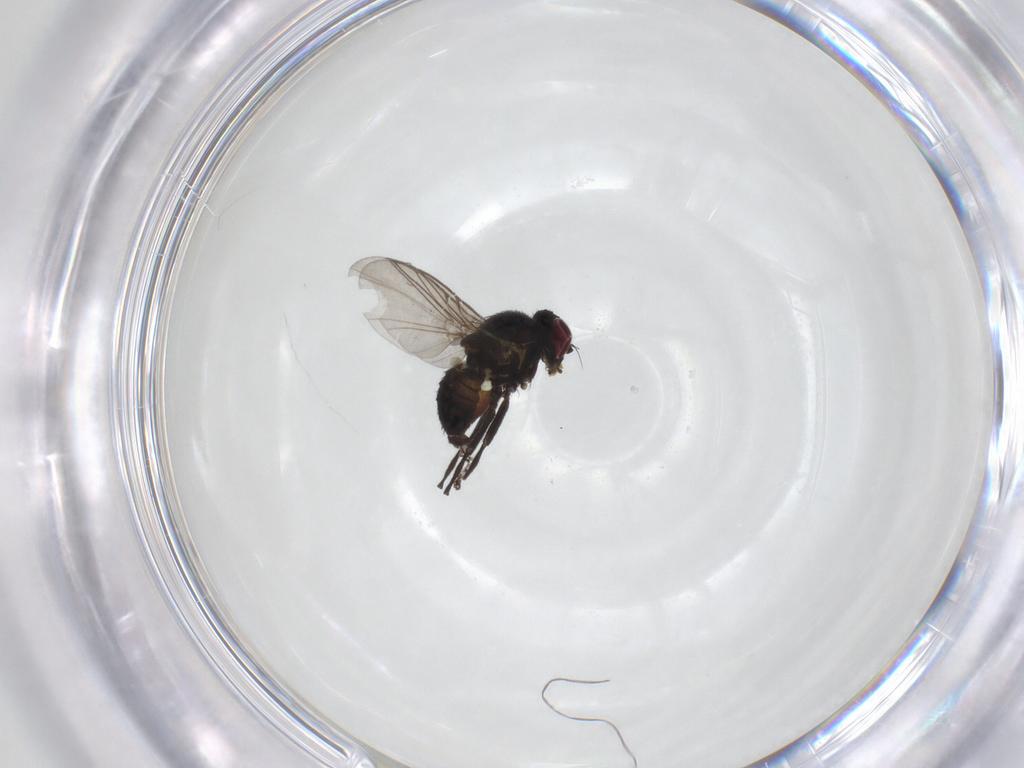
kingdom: Animalia
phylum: Arthropoda
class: Insecta
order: Diptera
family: Agromyzidae
